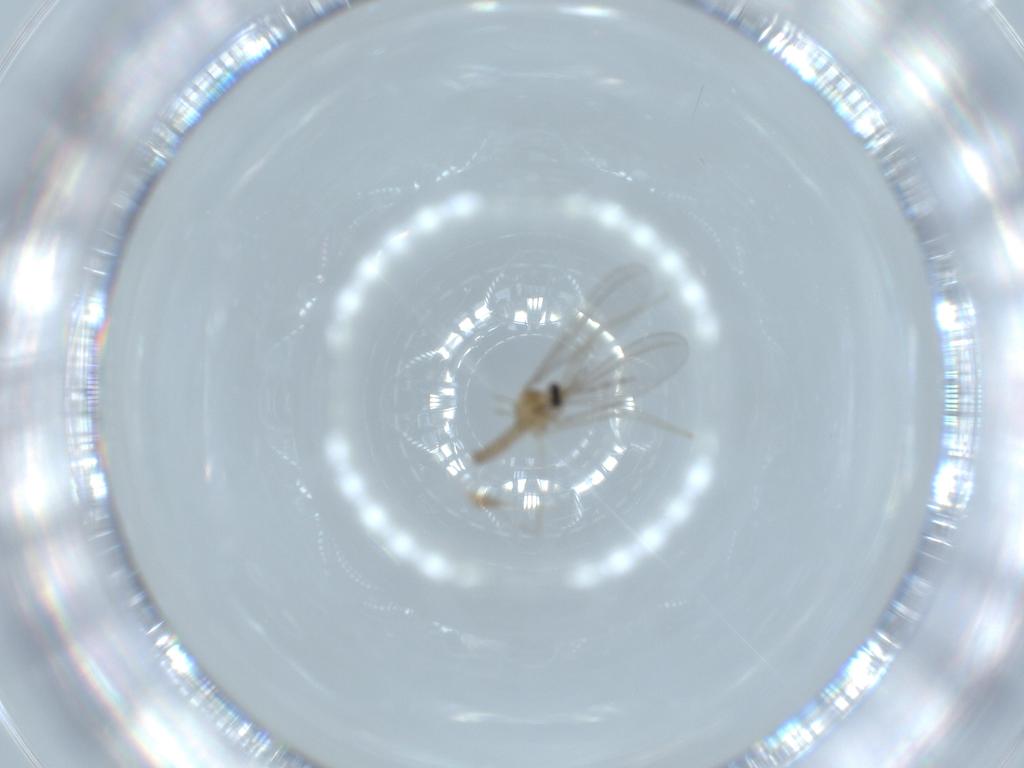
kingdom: Animalia
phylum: Arthropoda
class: Insecta
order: Diptera
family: Cecidomyiidae
